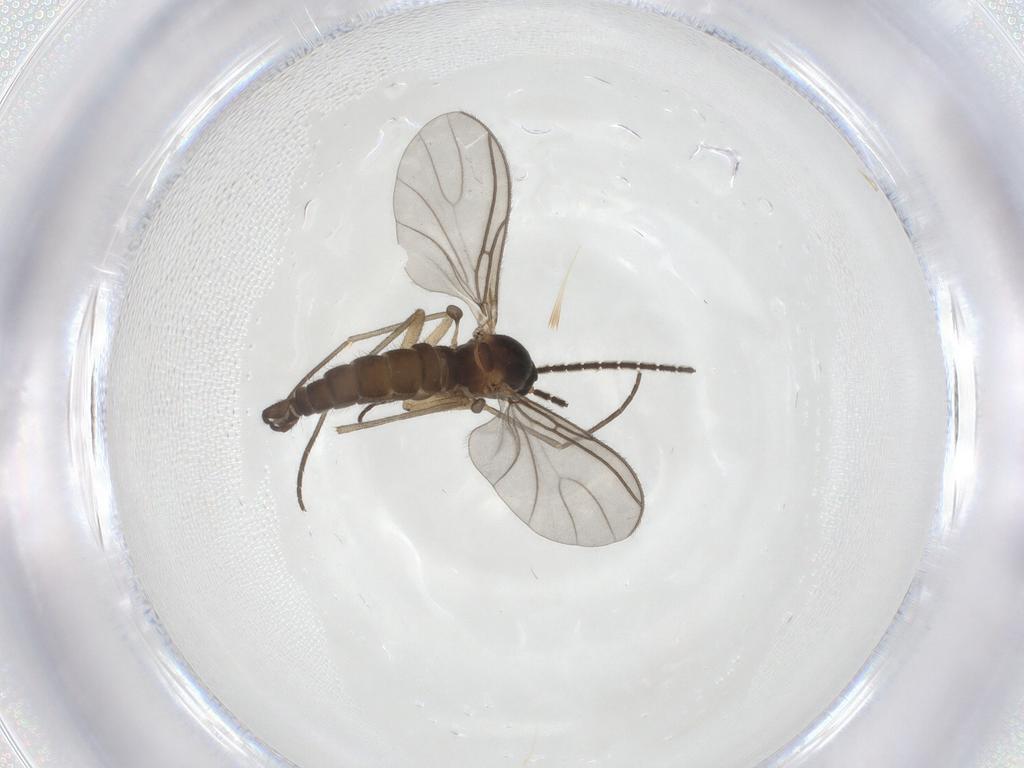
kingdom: Animalia
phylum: Arthropoda
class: Insecta
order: Diptera
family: Sciaridae
